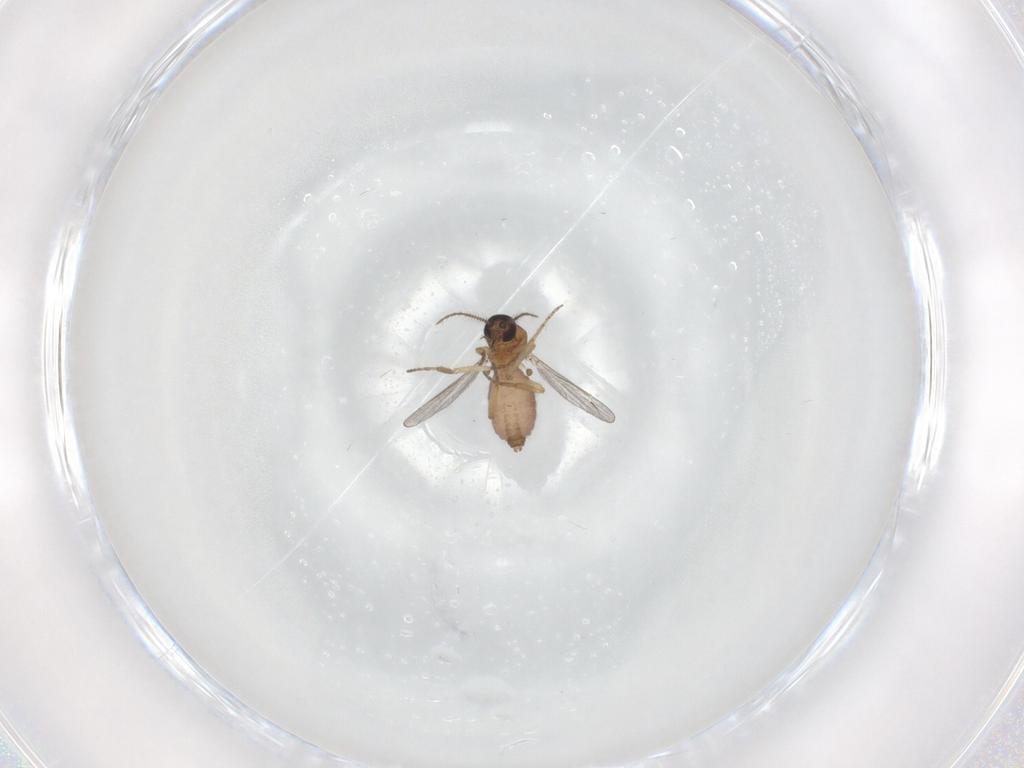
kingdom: Animalia
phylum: Arthropoda
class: Insecta
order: Diptera
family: Ceratopogonidae
